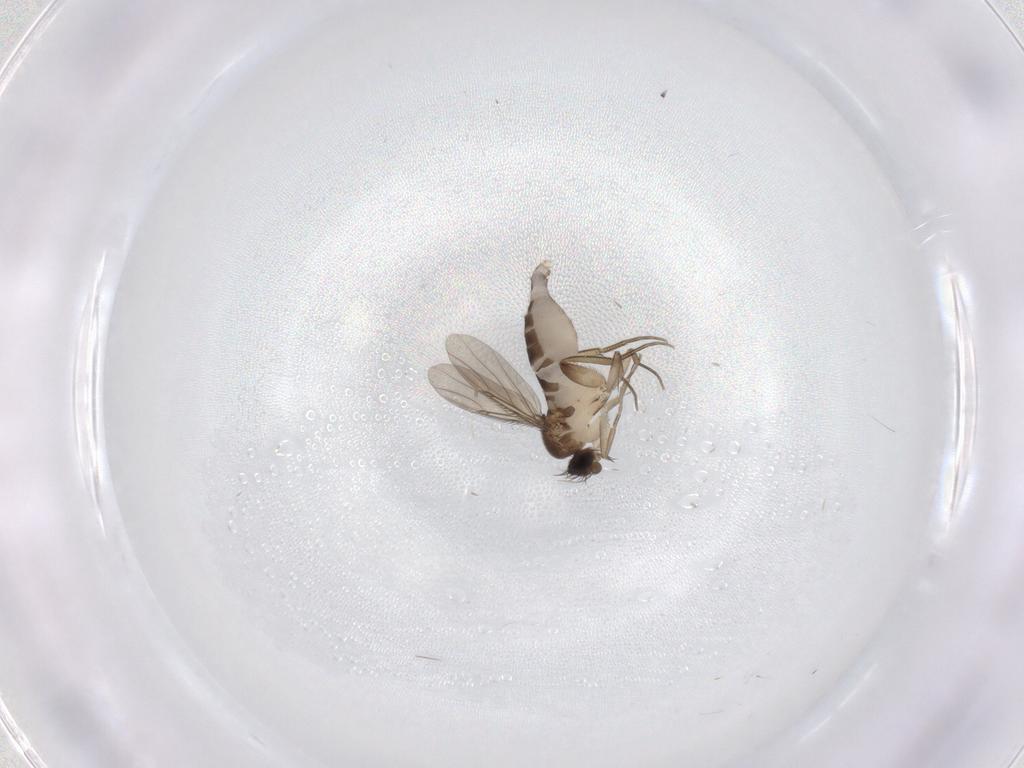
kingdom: Animalia
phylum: Arthropoda
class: Insecta
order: Diptera
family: Phoridae
